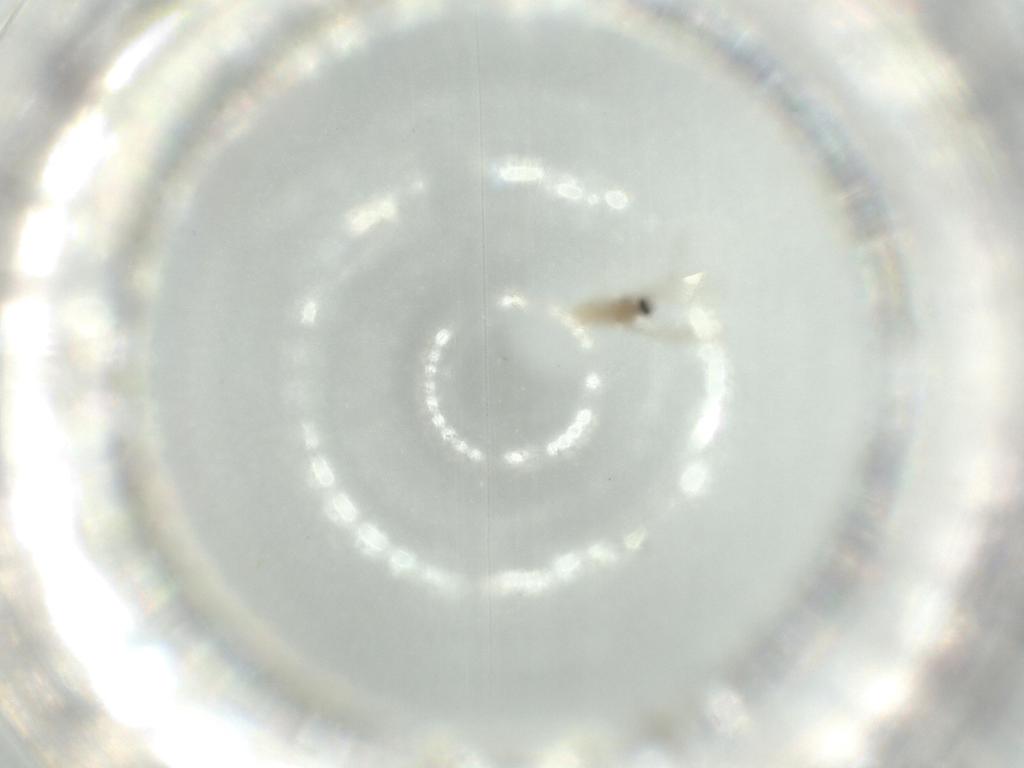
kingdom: Animalia
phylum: Arthropoda
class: Insecta
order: Diptera
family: Cecidomyiidae
